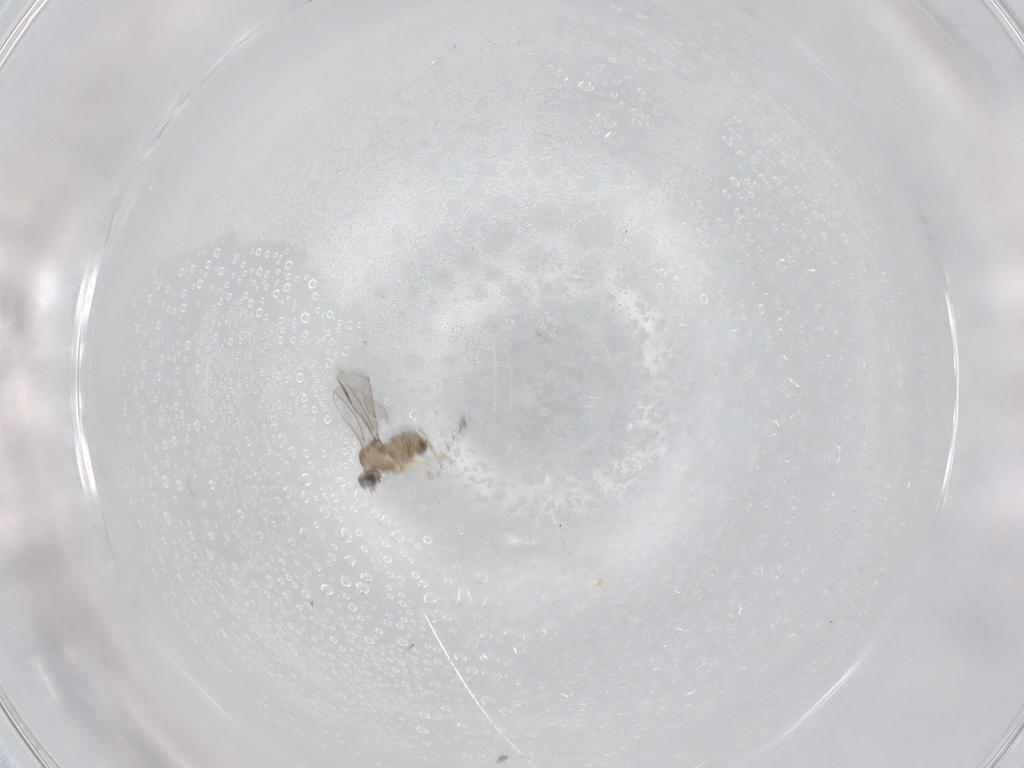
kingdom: Animalia
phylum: Arthropoda
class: Insecta
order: Diptera
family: Cecidomyiidae
